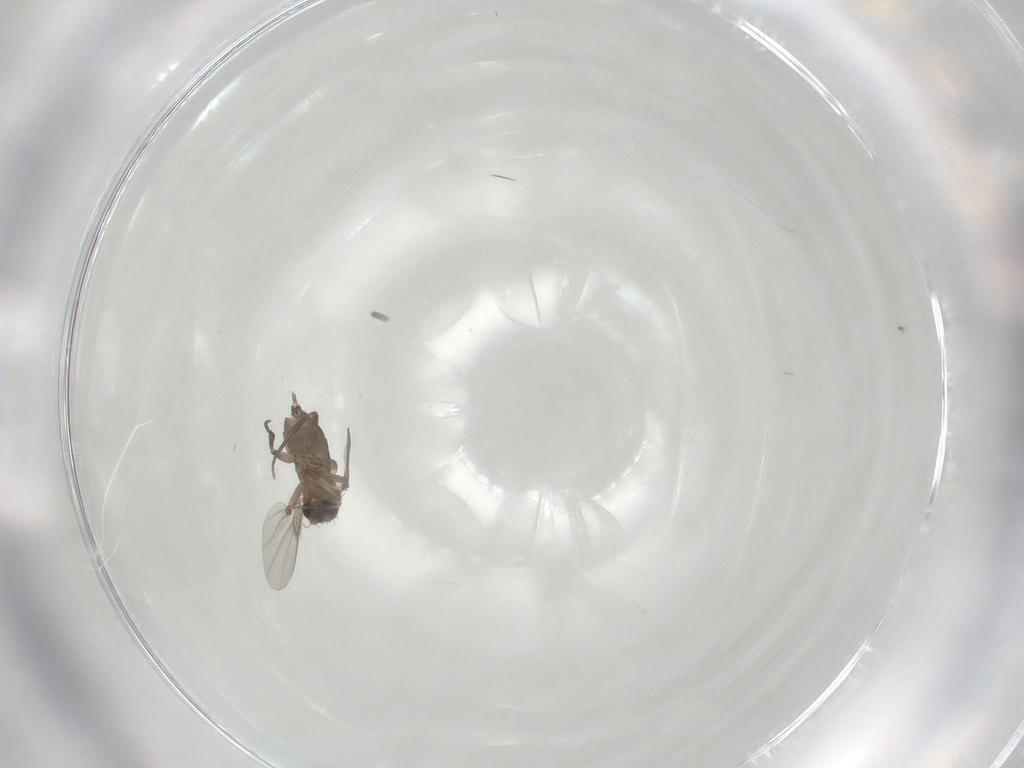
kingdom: Animalia
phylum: Arthropoda
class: Insecta
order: Diptera
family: Phoridae
